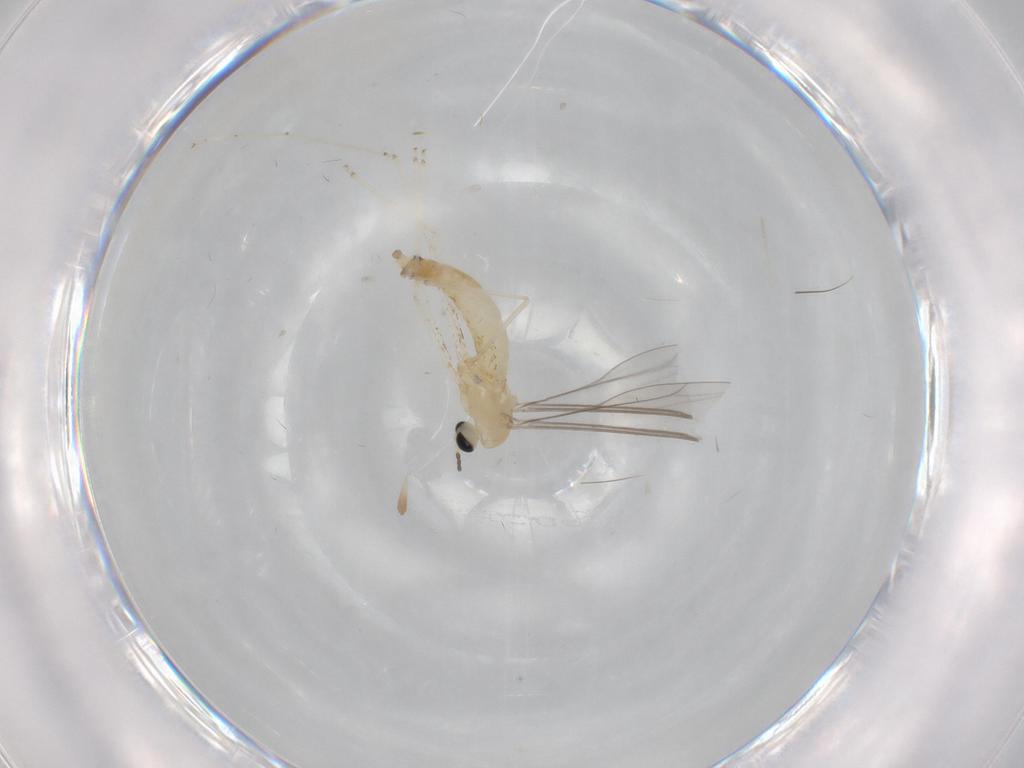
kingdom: Animalia
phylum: Arthropoda
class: Insecta
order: Diptera
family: Cecidomyiidae
